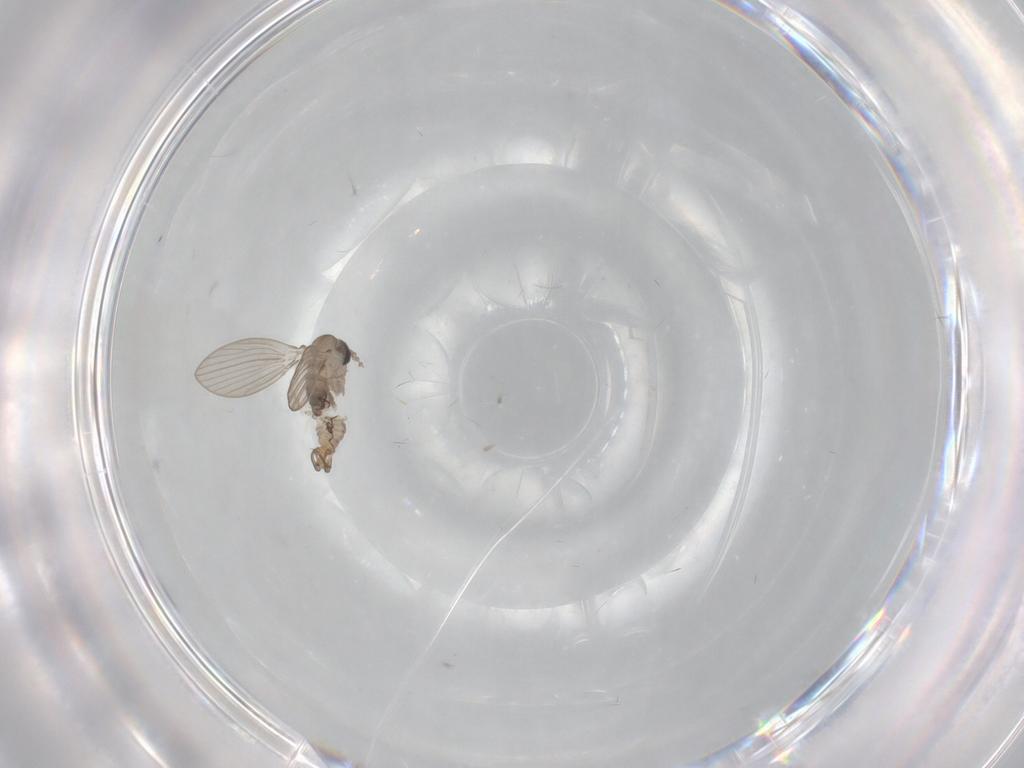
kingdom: Animalia
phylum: Arthropoda
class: Insecta
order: Diptera
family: Psychodidae
